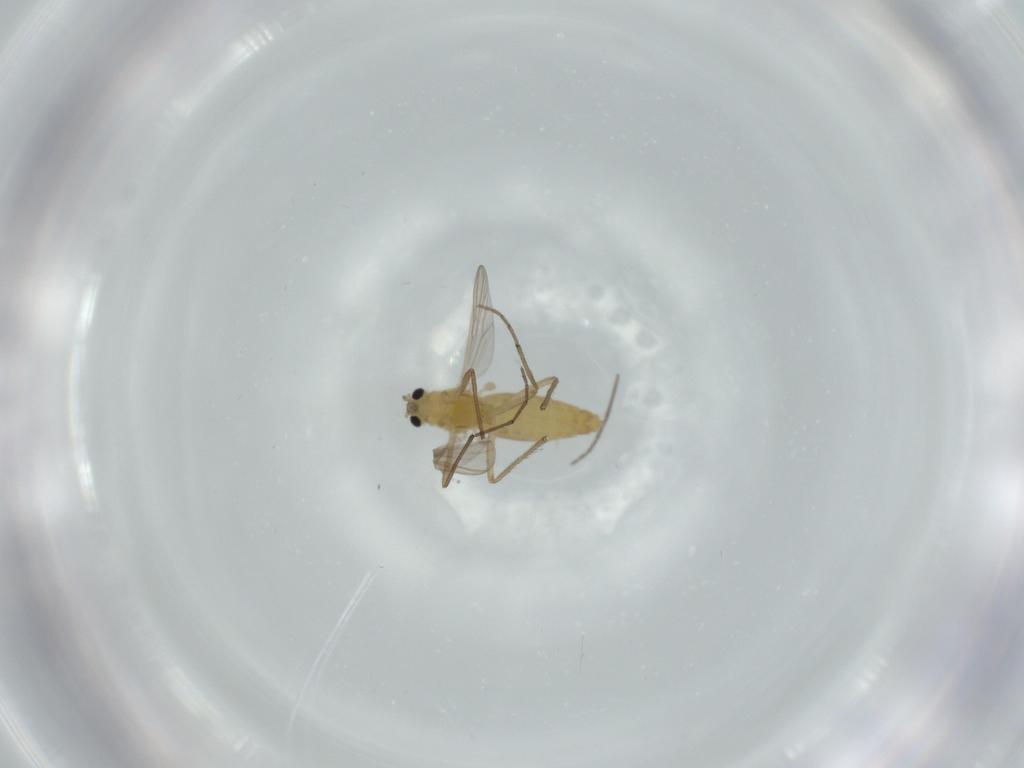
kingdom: Animalia
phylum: Arthropoda
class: Insecta
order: Diptera
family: Chironomidae
